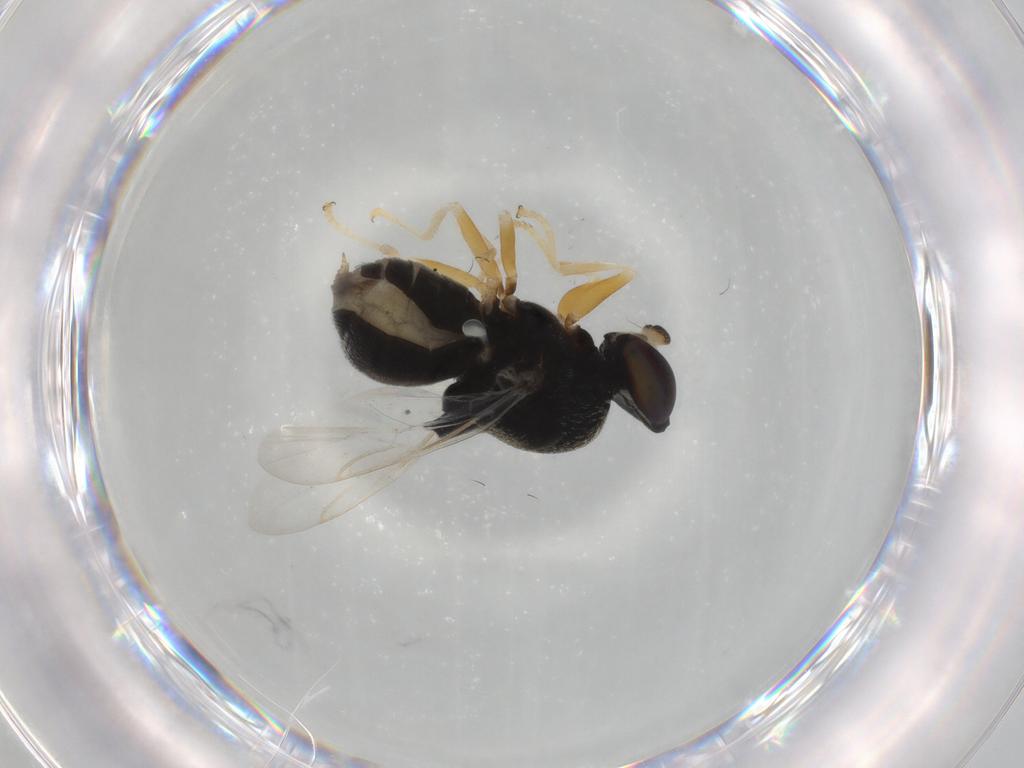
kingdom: Animalia
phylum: Arthropoda
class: Insecta
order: Diptera
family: Stratiomyidae
